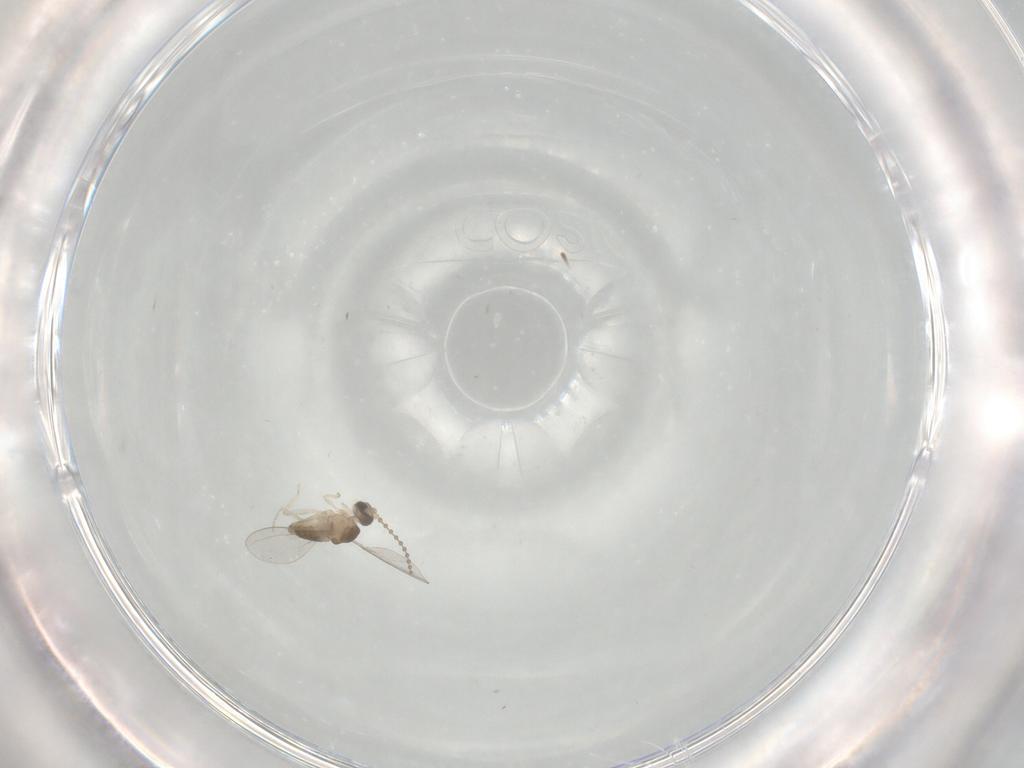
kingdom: Animalia
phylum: Arthropoda
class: Insecta
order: Diptera
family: Cecidomyiidae
